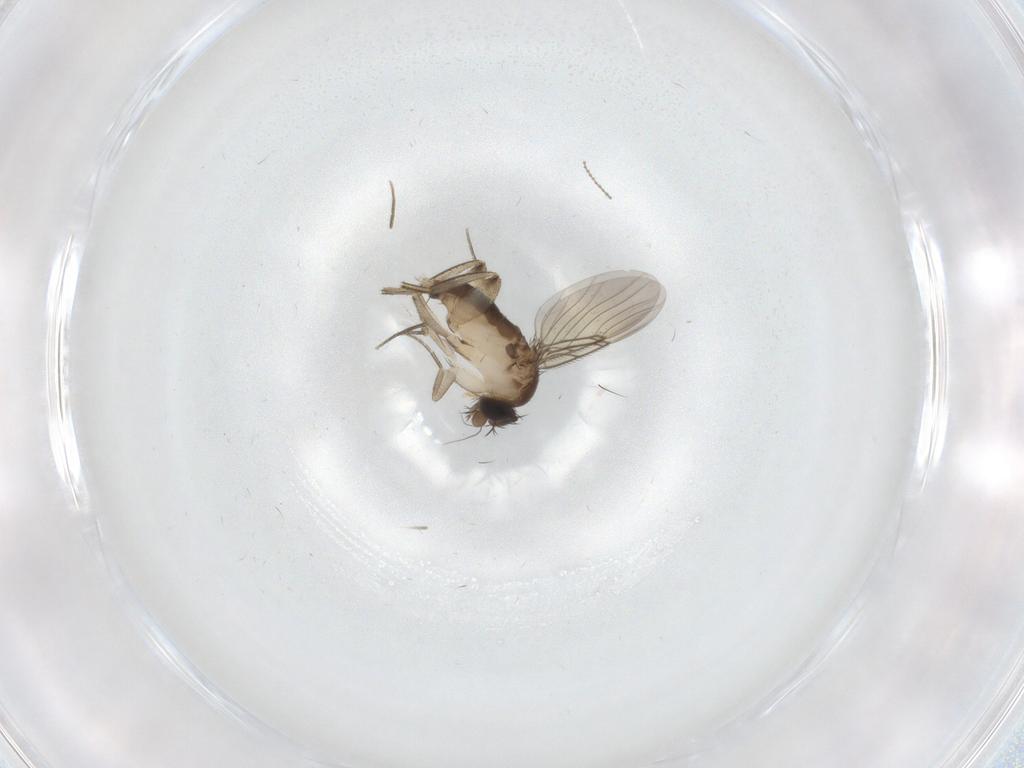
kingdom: Animalia
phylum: Arthropoda
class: Insecta
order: Diptera
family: Phoridae
